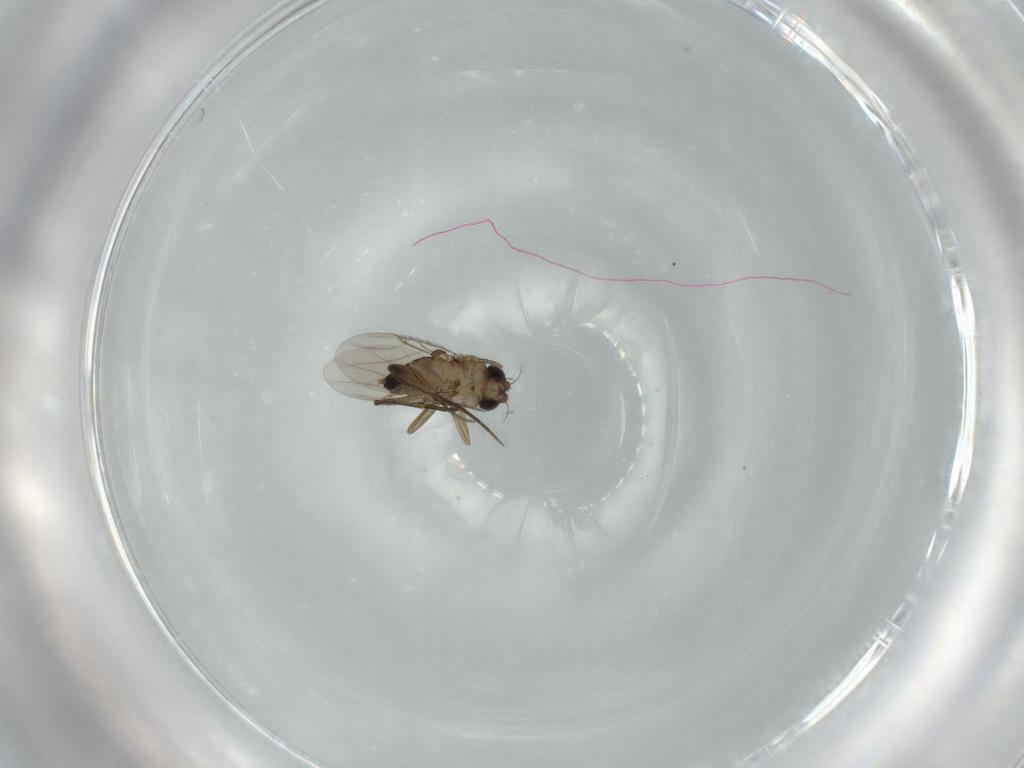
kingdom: Animalia
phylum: Arthropoda
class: Insecta
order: Diptera
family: Phoridae
